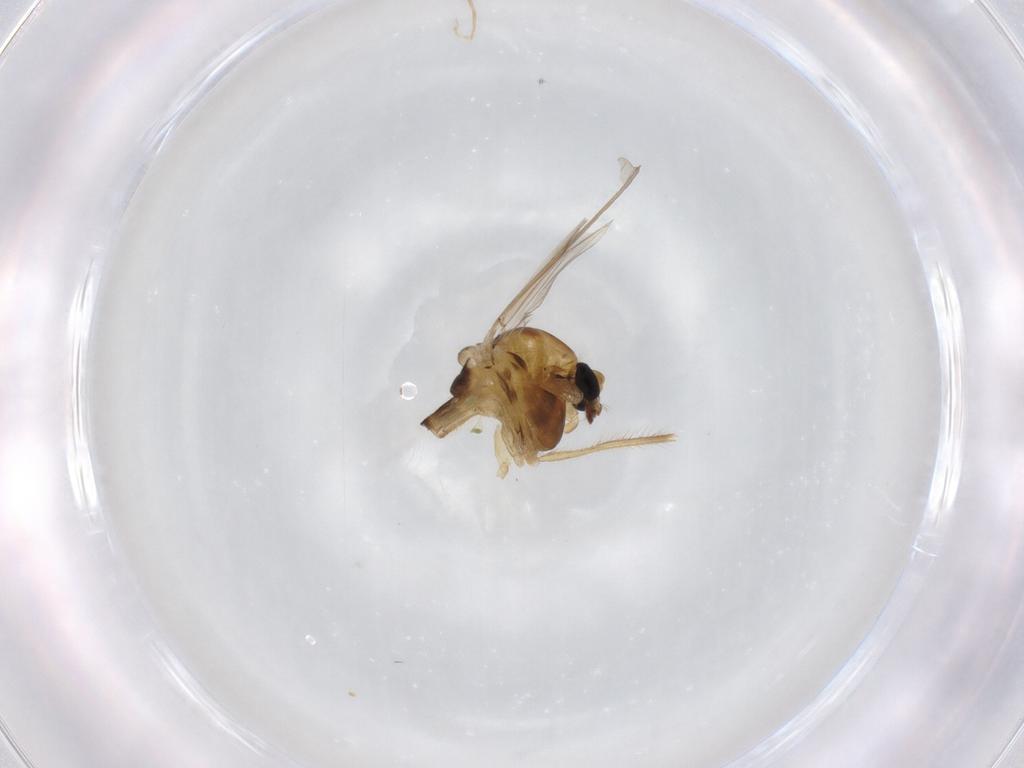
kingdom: Animalia
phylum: Arthropoda
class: Insecta
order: Diptera
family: Chironomidae
